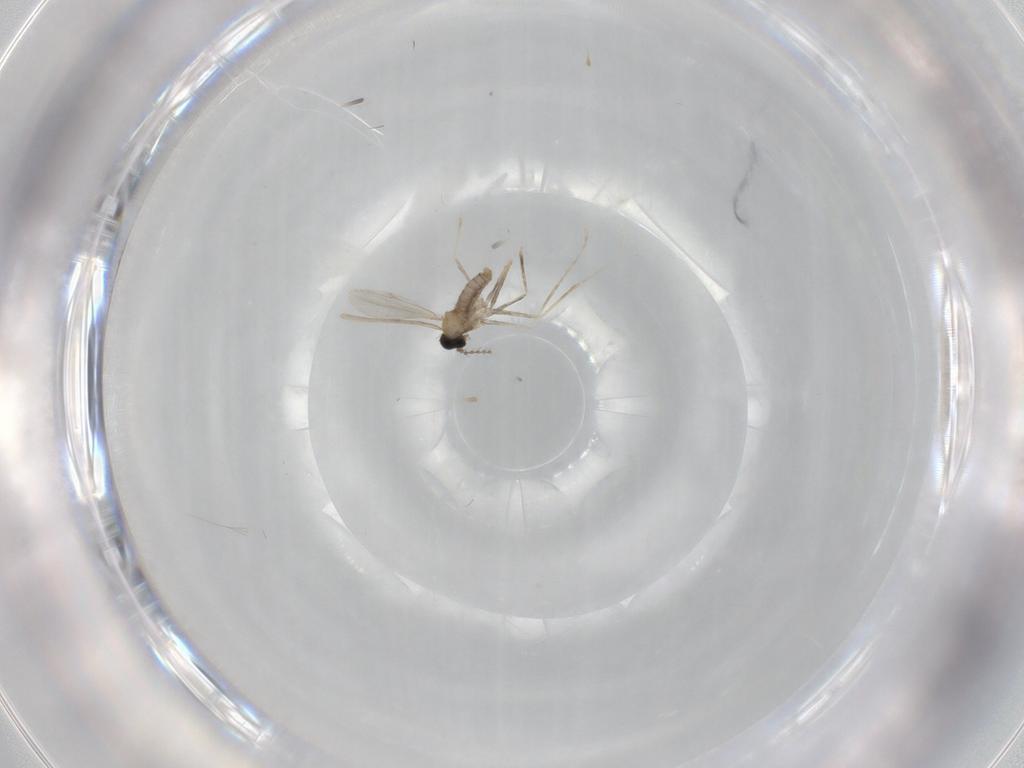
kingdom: Animalia
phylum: Arthropoda
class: Insecta
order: Diptera
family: Cecidomyiidae
